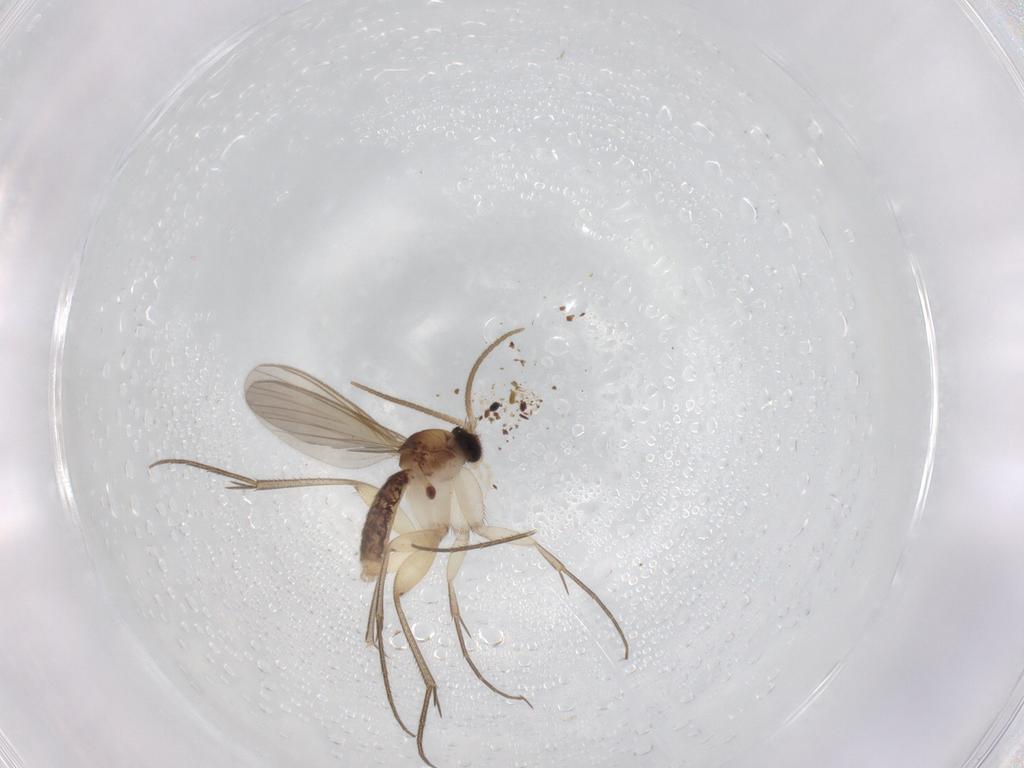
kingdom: Animalia
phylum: Arthropoda
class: Insecta
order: Diptera
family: Mycetophilidae
